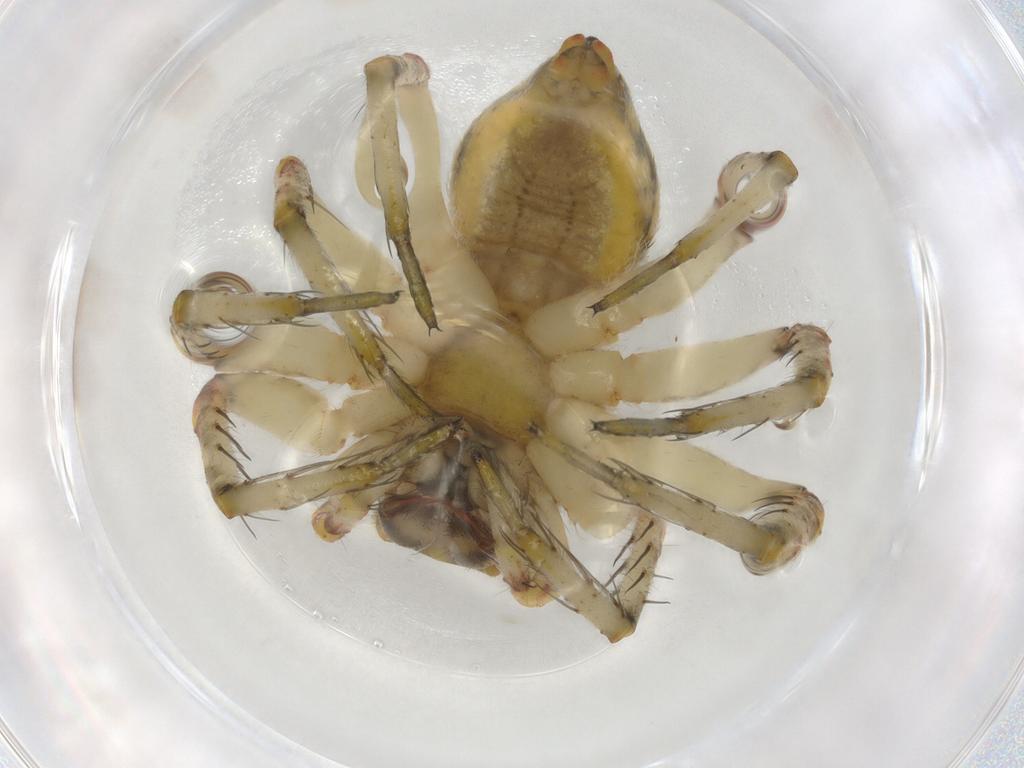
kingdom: Animalia
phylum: Arthropoda
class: Arachnida
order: Araneae
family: Pisauridae
